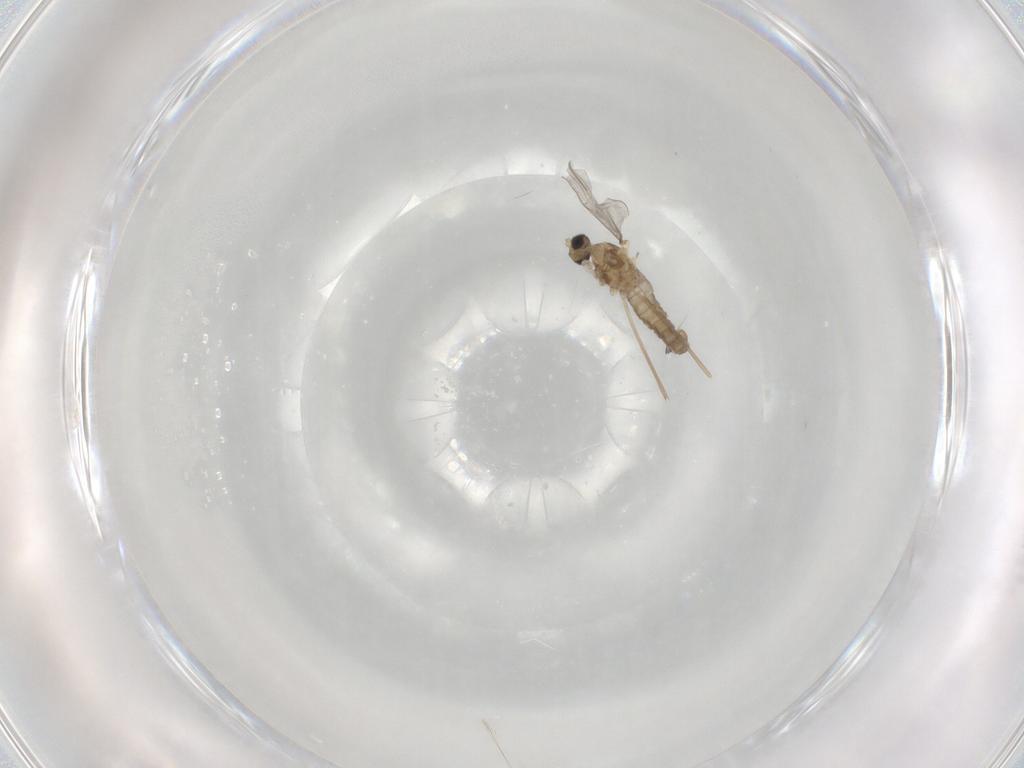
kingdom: Animalia
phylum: Arthropoda
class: Insecta
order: Diptera
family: Cecidomyiidae
